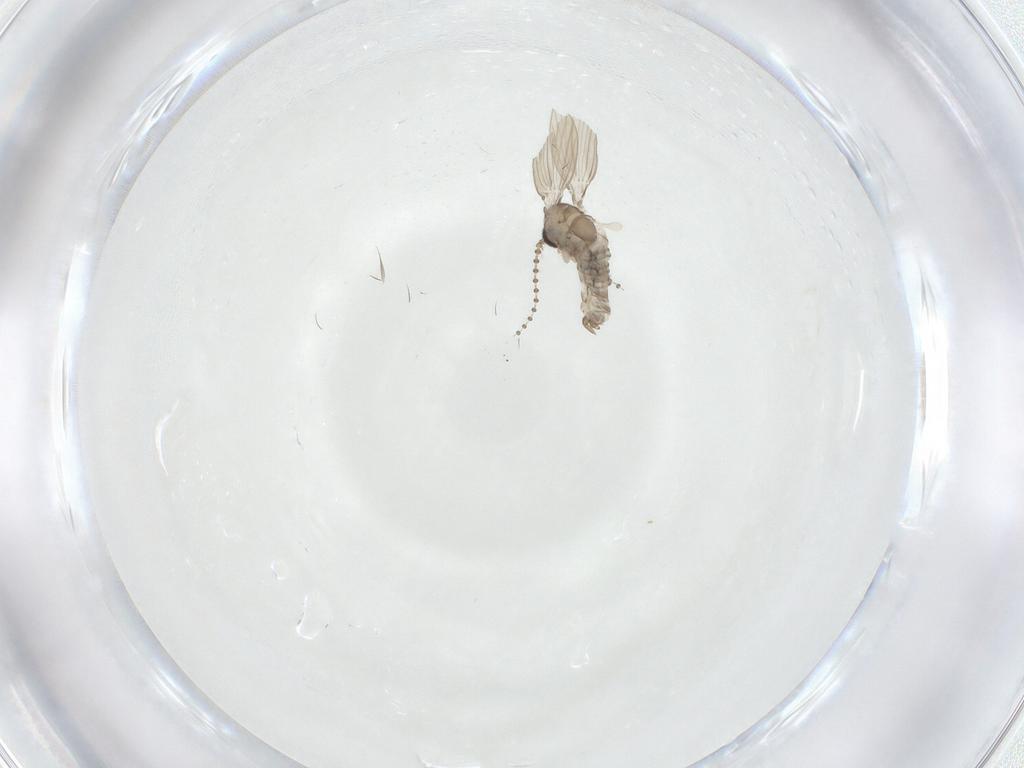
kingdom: Animalia
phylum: Arthropoda
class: Insecta
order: Diptera
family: Psychodidae
